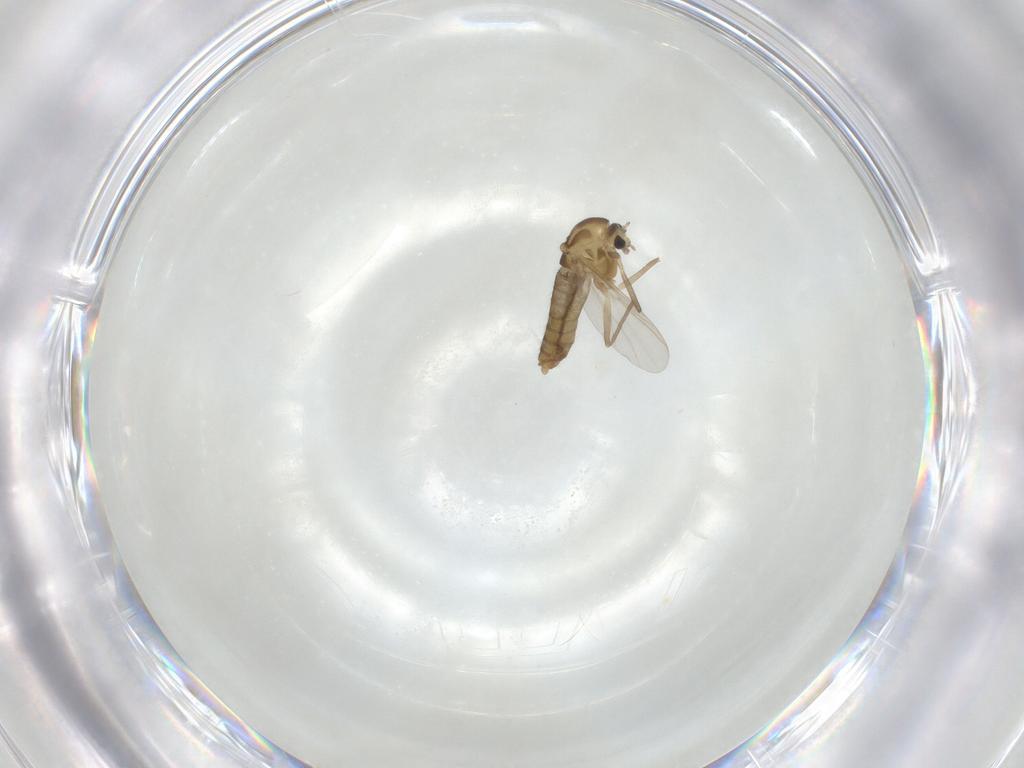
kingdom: Animalia
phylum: Arthropoda
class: Insecta
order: Diptera
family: Chironomidae
